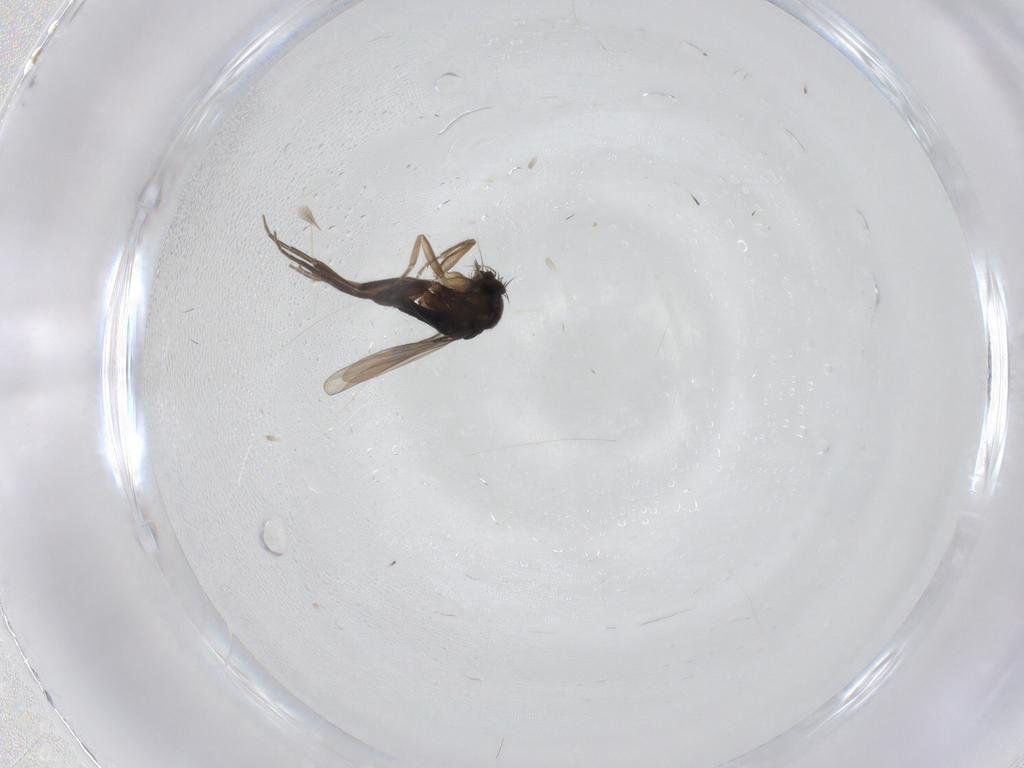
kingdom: Animalia
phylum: Arthropoda
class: Insecta
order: Diptera
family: Phoridae
